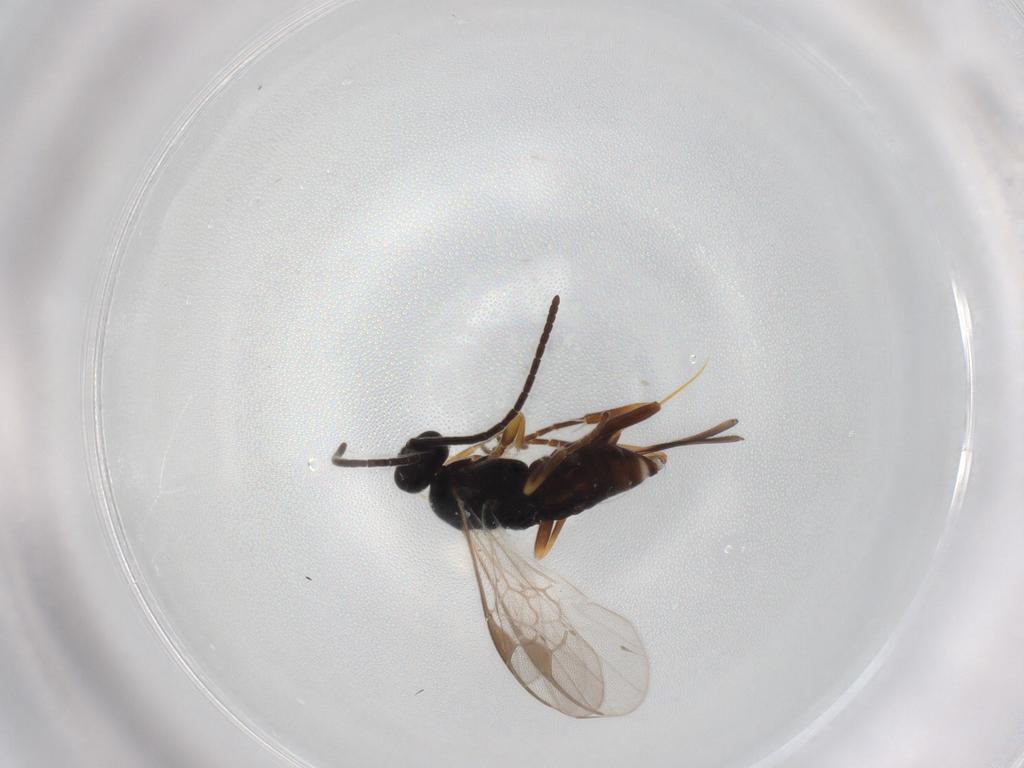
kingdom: Animalia
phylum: Arthropoda
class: Insecta
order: Hymenoptera
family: Braconidae
